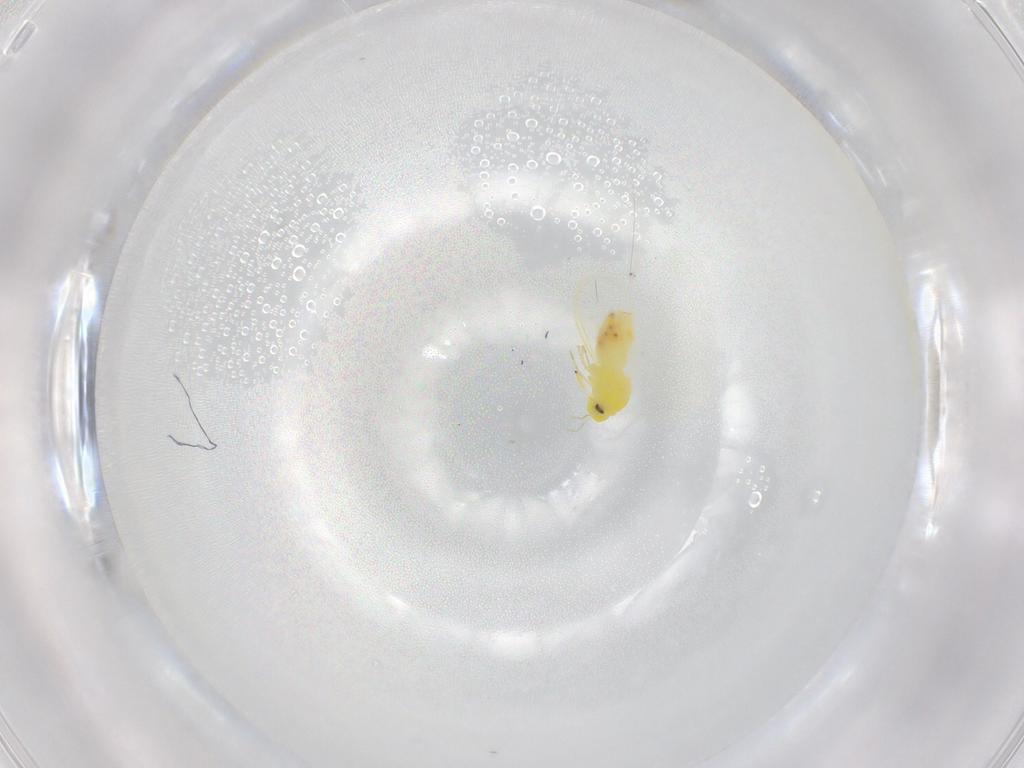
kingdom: Animalia
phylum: Arthropoda
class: Insecta
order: Hemiptera
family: Aleyrodidae
